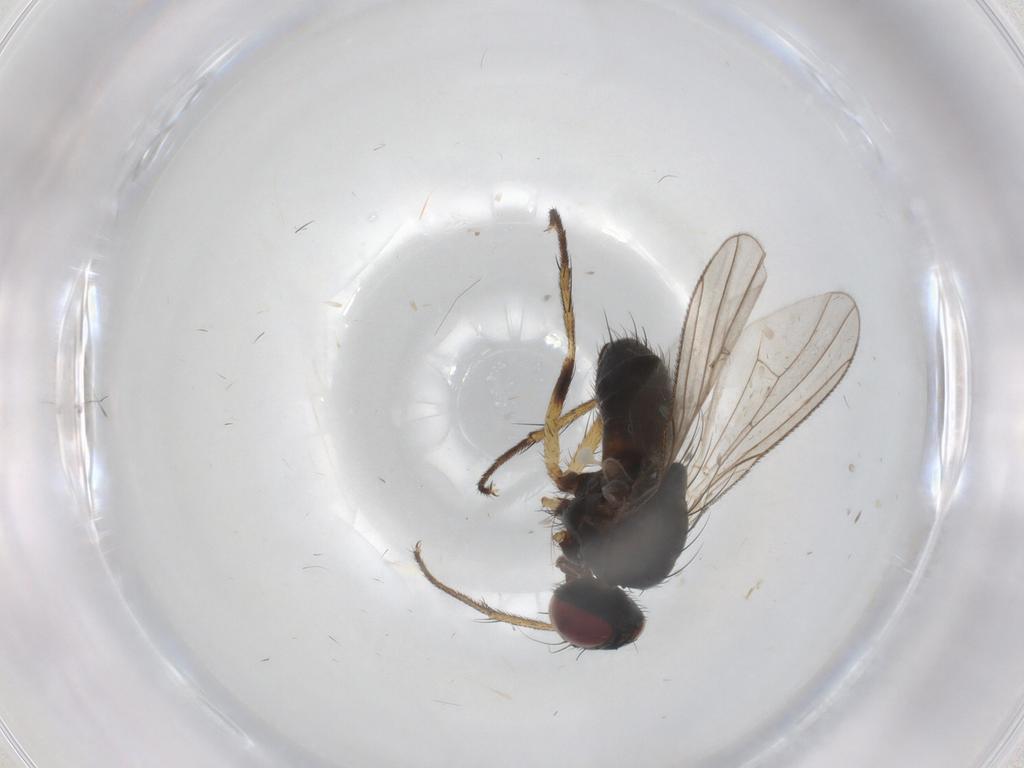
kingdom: Animalia
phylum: Arthropoda
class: Insecta
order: Diptera
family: Muscidae
